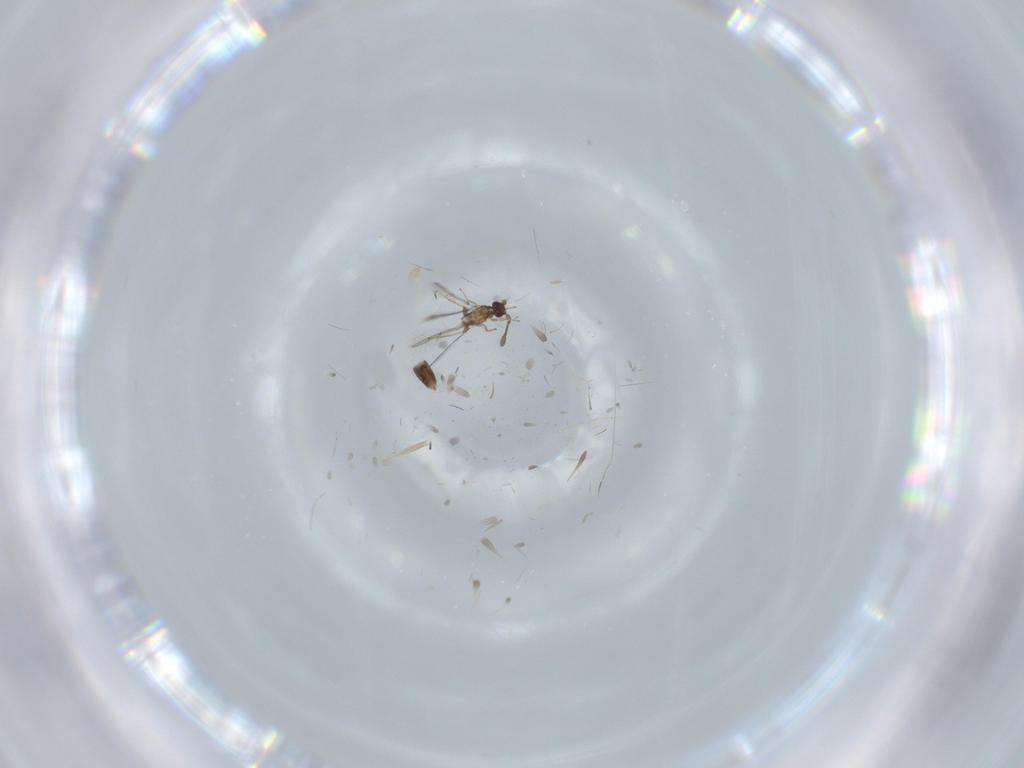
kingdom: Animalia
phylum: Arthropoda
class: Insecta
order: Hymenoptera
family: Mymaridae
